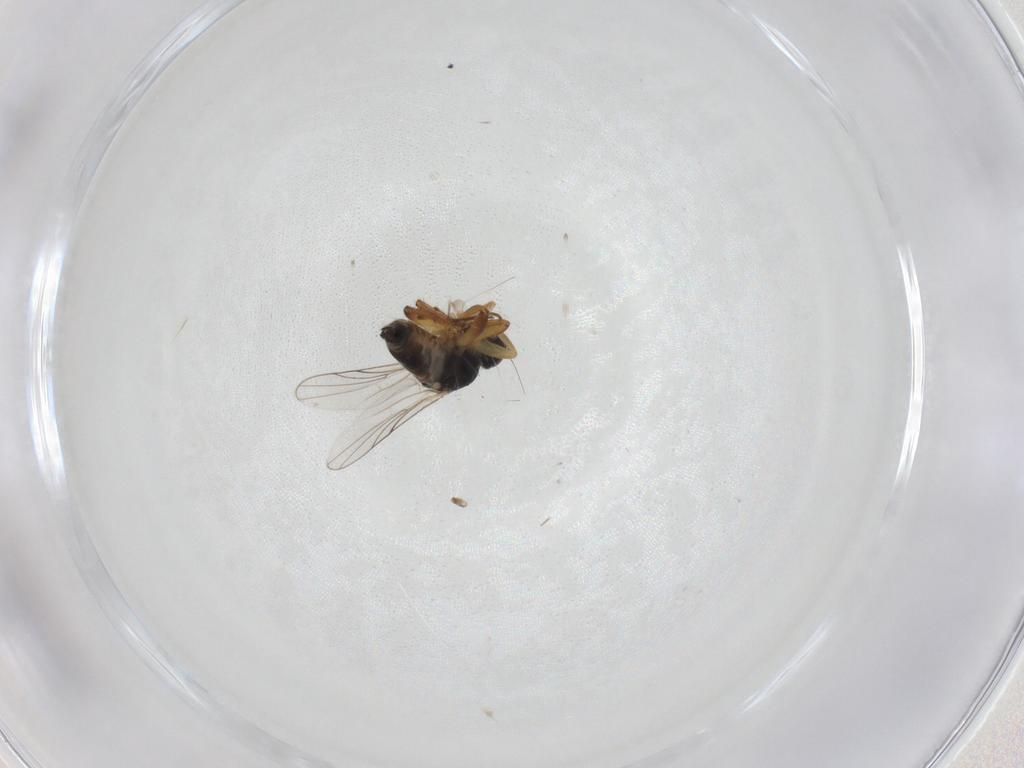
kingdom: Animalia
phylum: Arthropoda
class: Insecta
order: Diptera
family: Hybotidae
